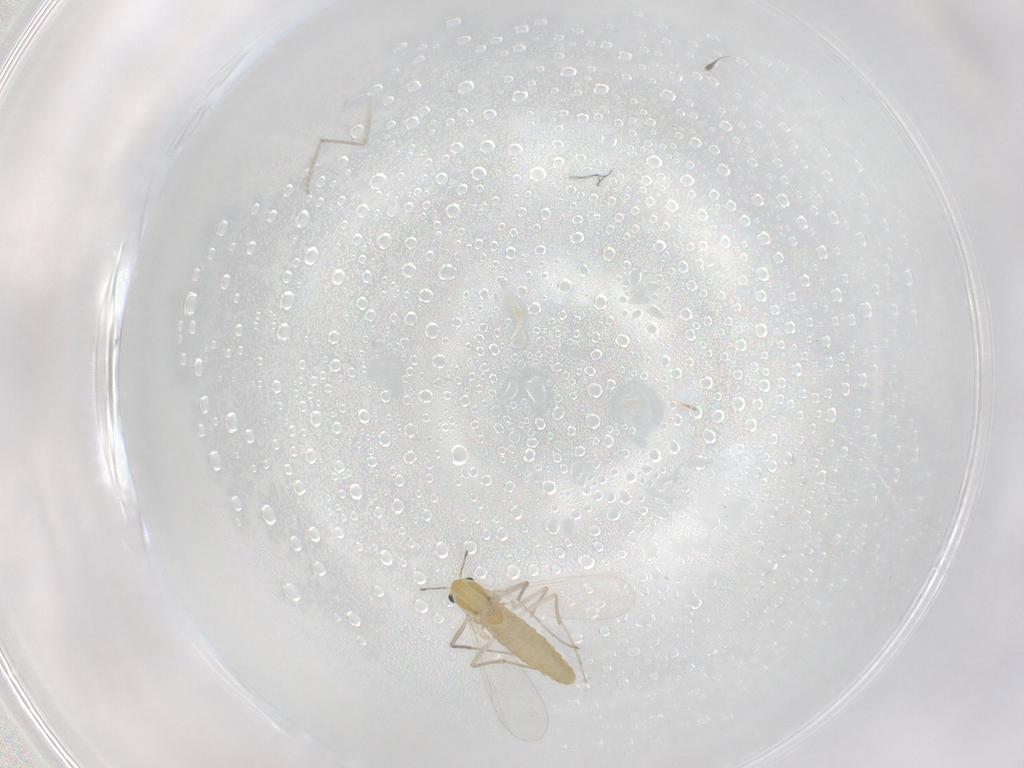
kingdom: Animalia
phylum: Arthropoda
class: Insecta
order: Diptera
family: Chironomidae
